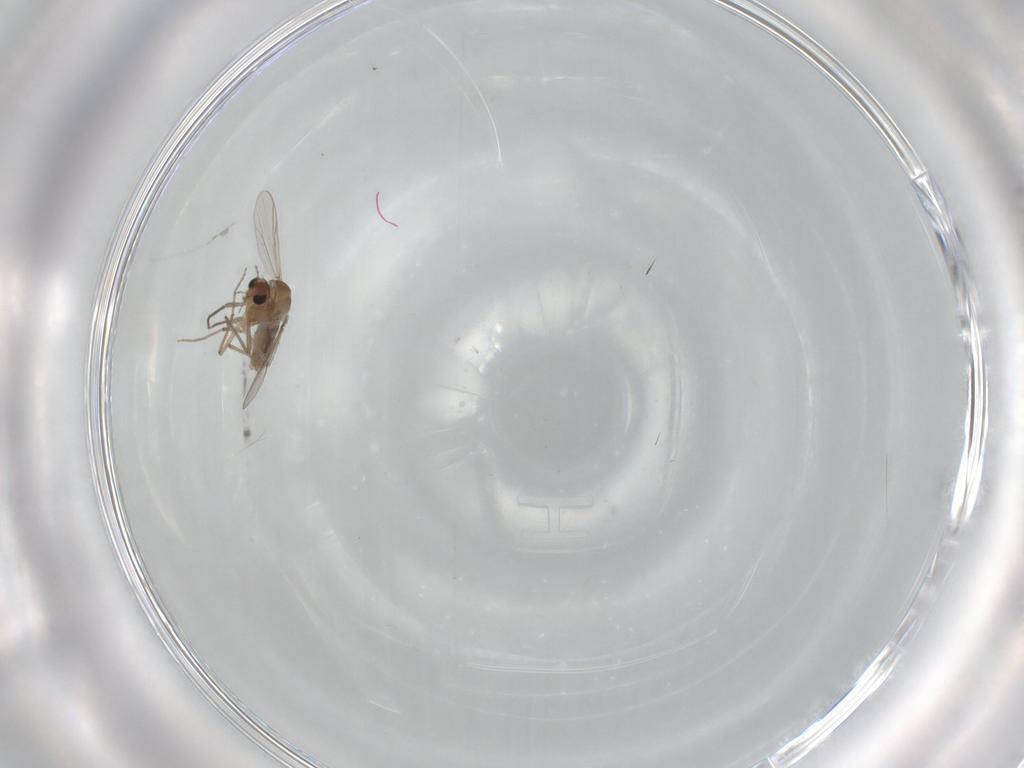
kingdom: Animalia
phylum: Arthropoda
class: Insecta
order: Diptera
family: Chironomidae
